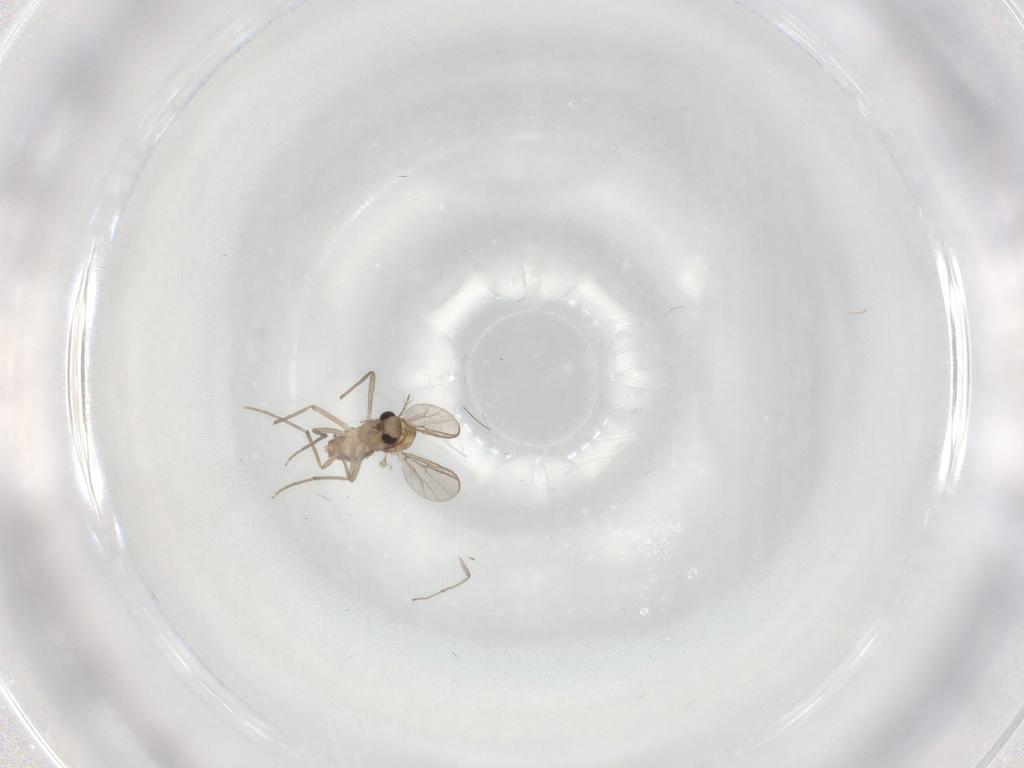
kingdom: Animalia
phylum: Arthropoda
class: Insecta
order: Diptera
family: Chironomidae
